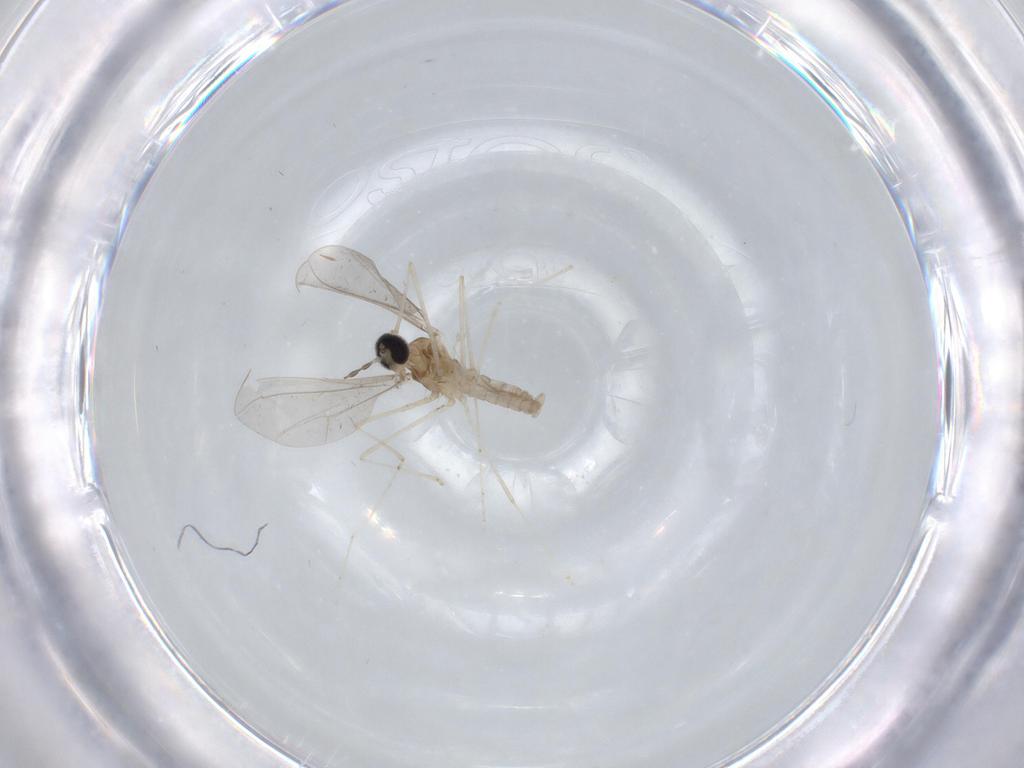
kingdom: Animalia
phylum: Arthropoda
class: Insecta
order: Diptera
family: Cecidomyiidae
